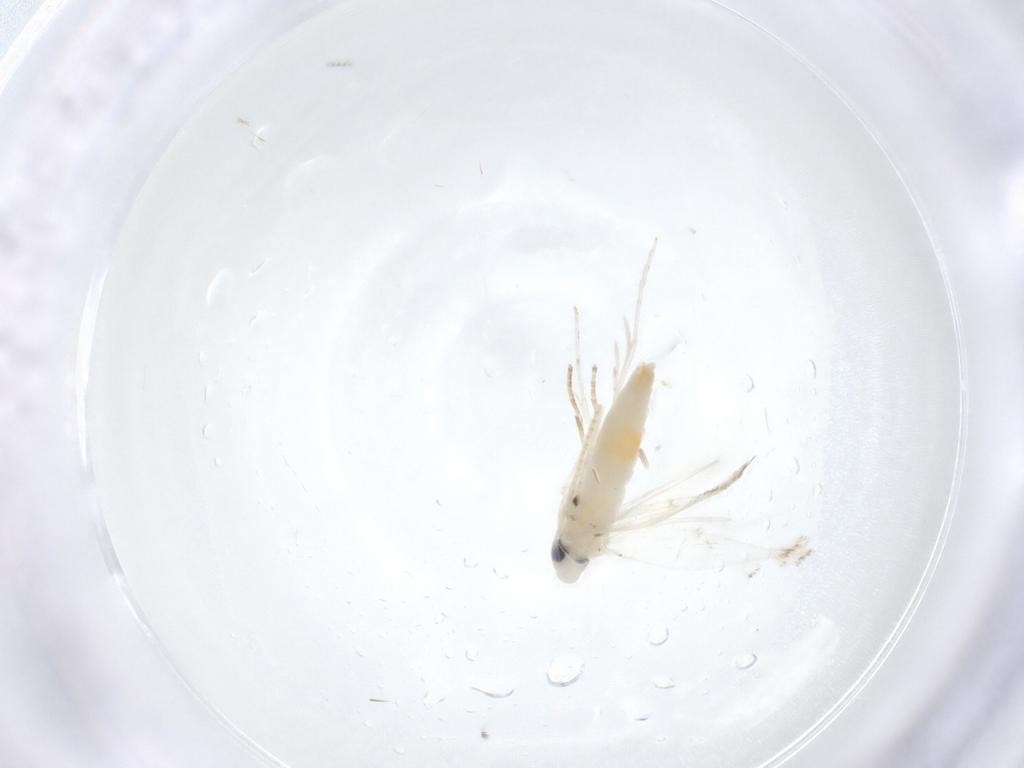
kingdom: Animalia
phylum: Arthropoda
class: Insecta
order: Lepidoptera
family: Gracillariidae
